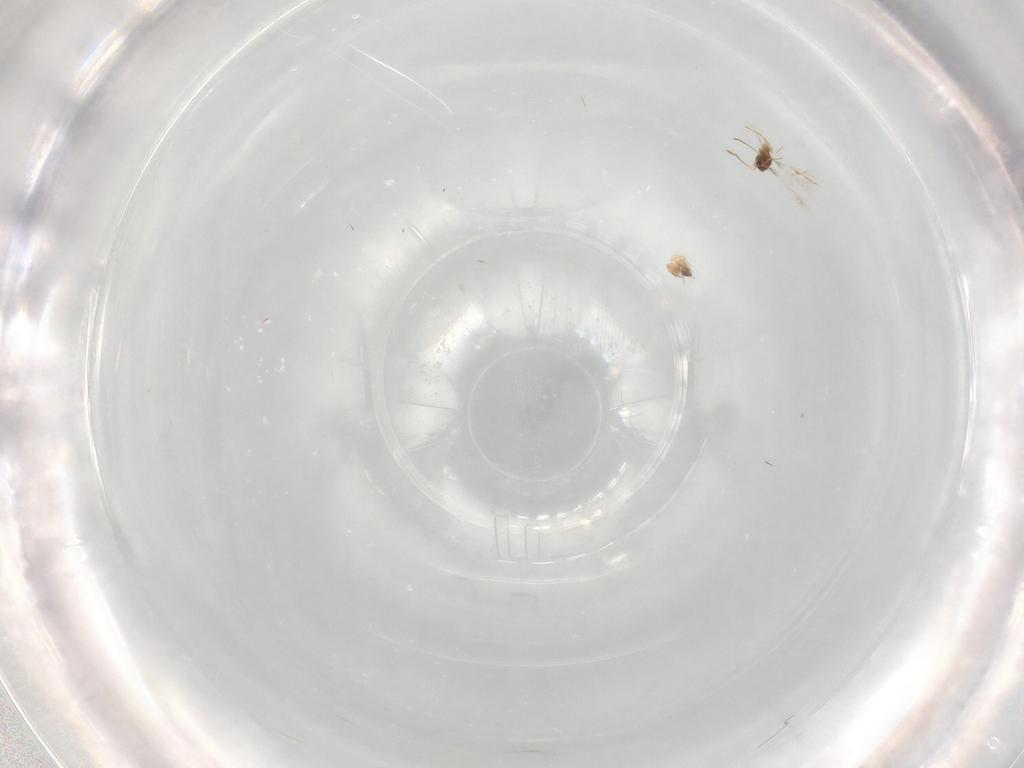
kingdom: Animalia
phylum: Arthropoda
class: Insecta
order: Hymenoptera
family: Mymaridae
